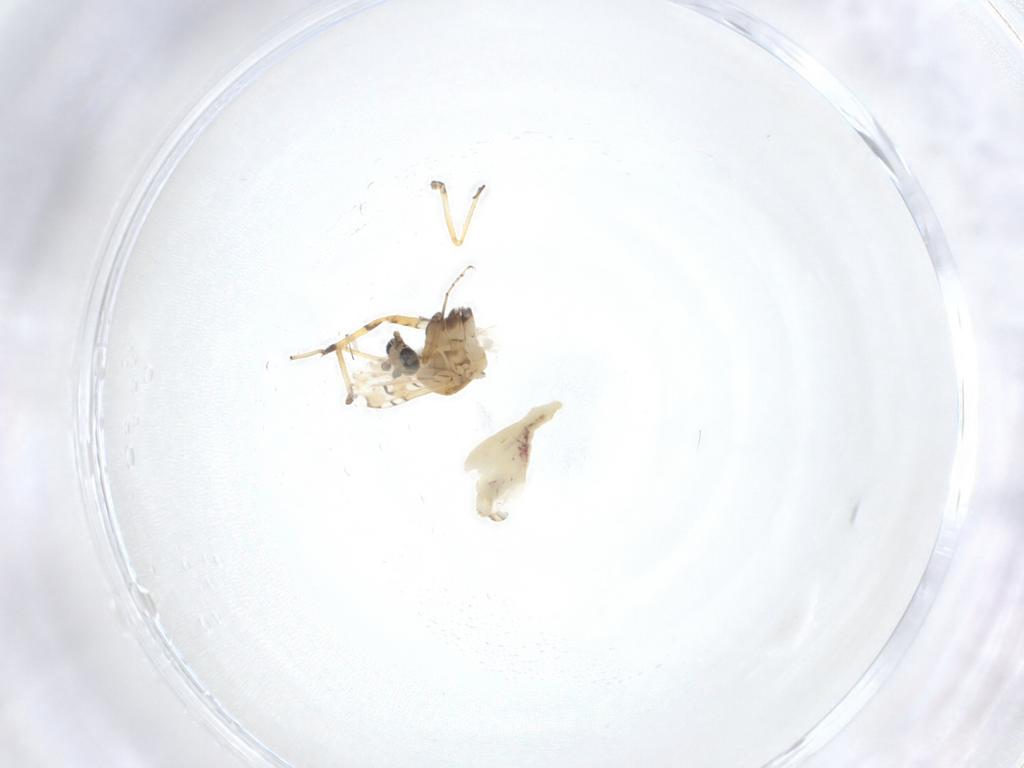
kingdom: Animalia
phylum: Arthropoda
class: Insecta
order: Diptera
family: Ceratopogonidae
